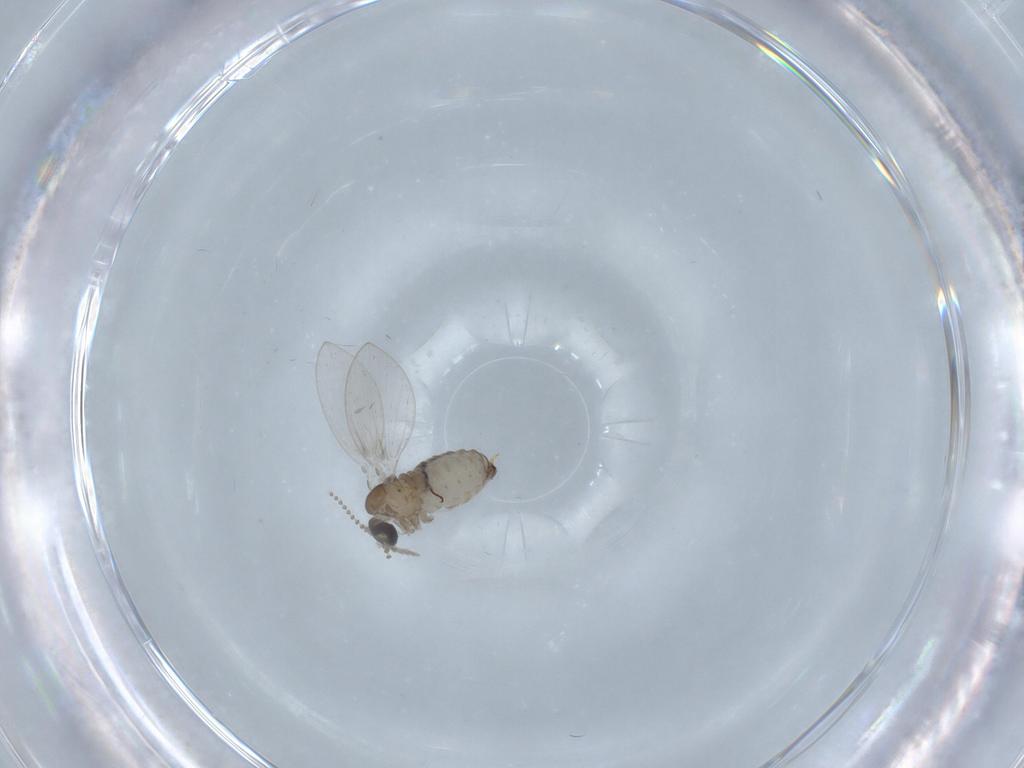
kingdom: Animalia
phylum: Arthropoda
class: Insecta
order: Diptera
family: Psychodidae
